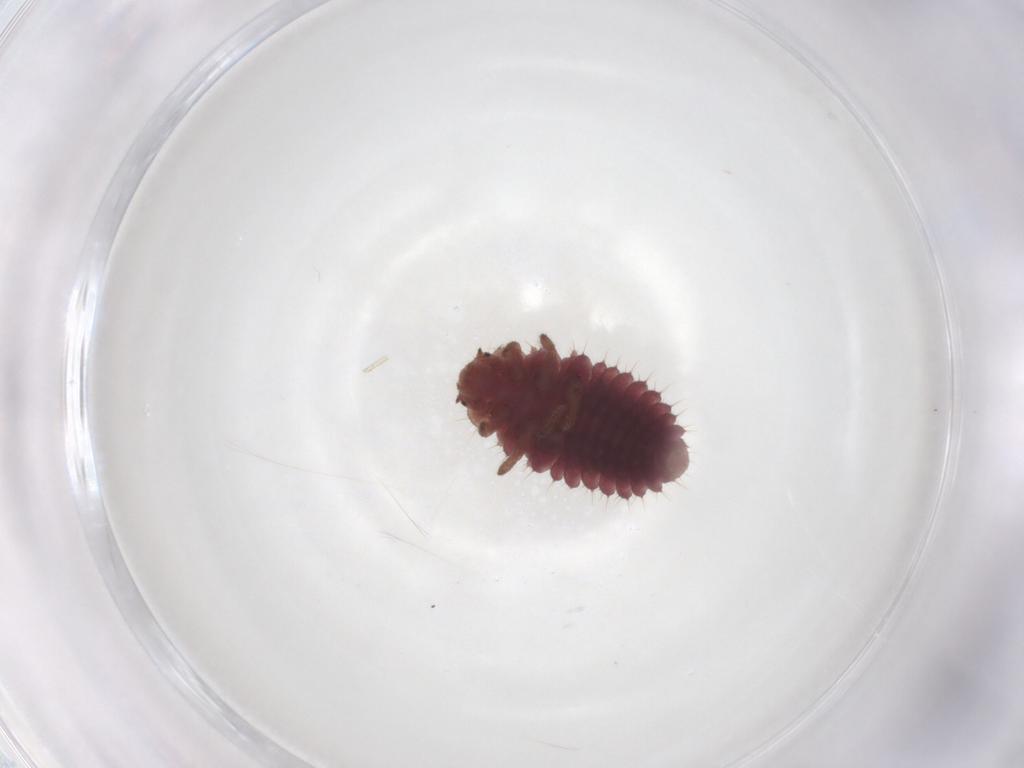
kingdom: Animalia
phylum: Arthropoda
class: Insecta
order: Coleoptera
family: Coccinellidae
